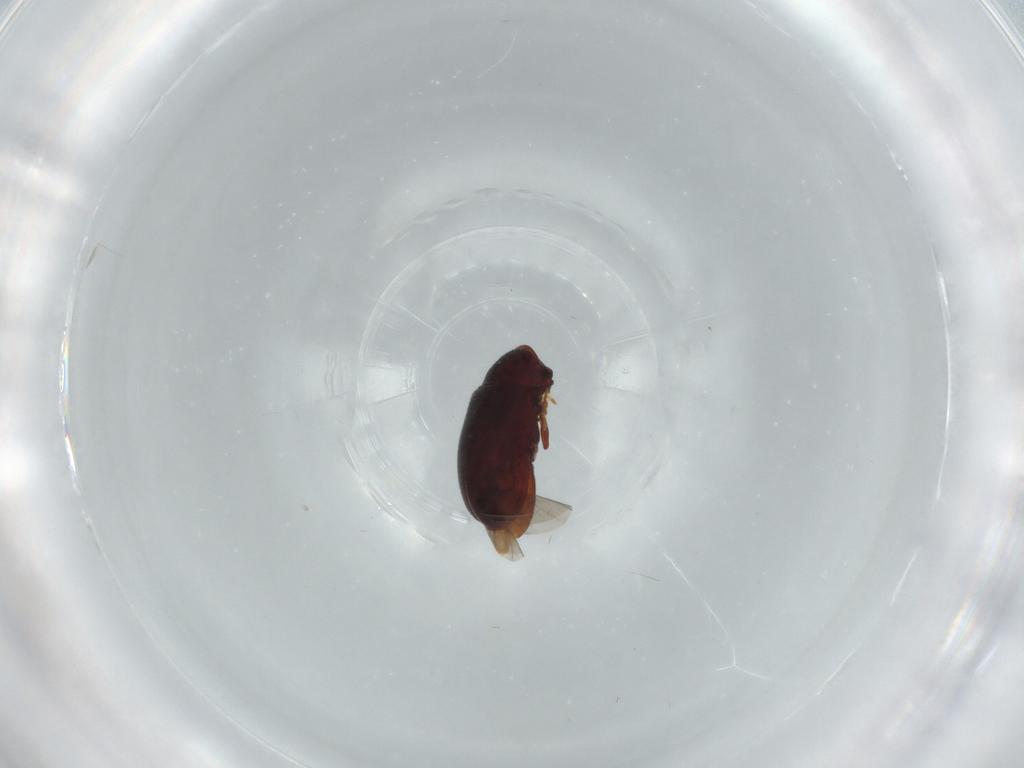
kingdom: Animalia
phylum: Arthropoda
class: Insecta
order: Coleoptera
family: Ptinidae
